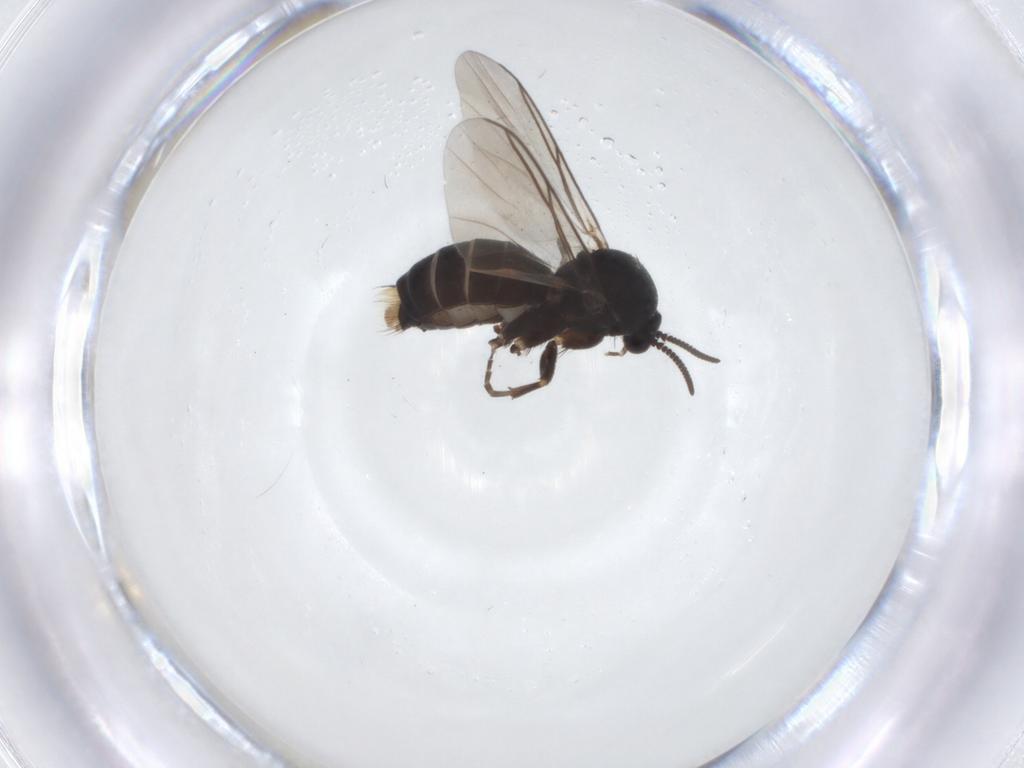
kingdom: Animalia
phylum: Arthropoda
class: Insecta
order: Diptera
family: Mycetophilidae
